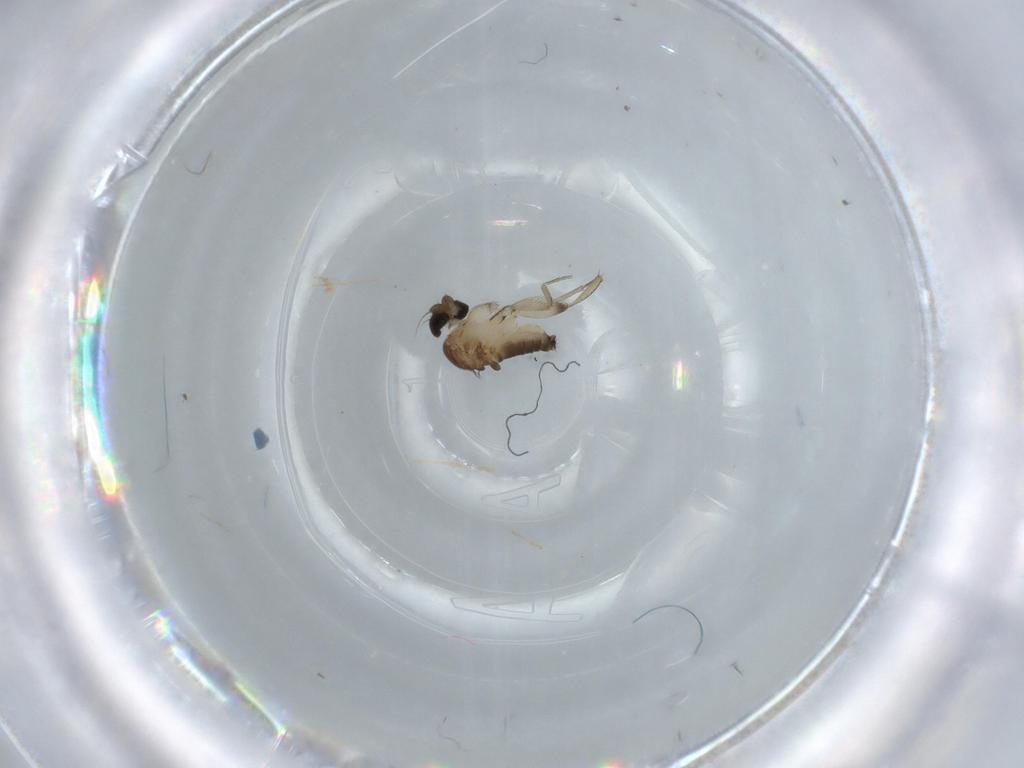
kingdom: Animalia
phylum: Arthropoda
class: Insecta
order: Diptera
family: Phoridae
